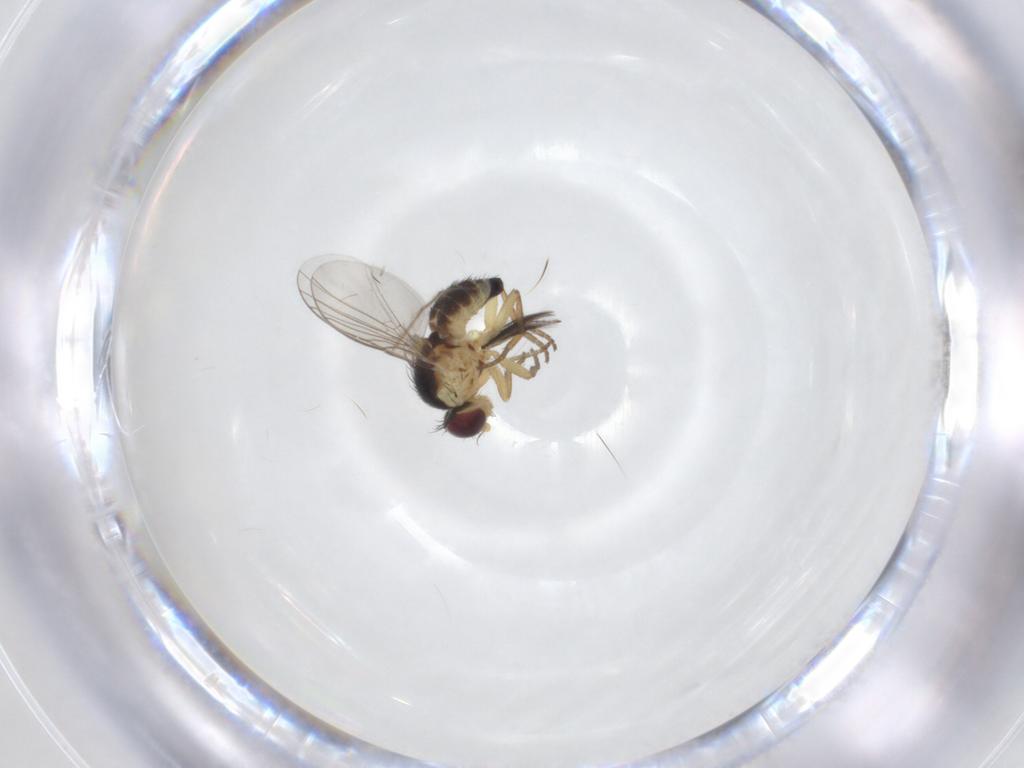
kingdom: Animalia
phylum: Arthropoda
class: Insecta
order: Diptera
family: Agromyzidae
